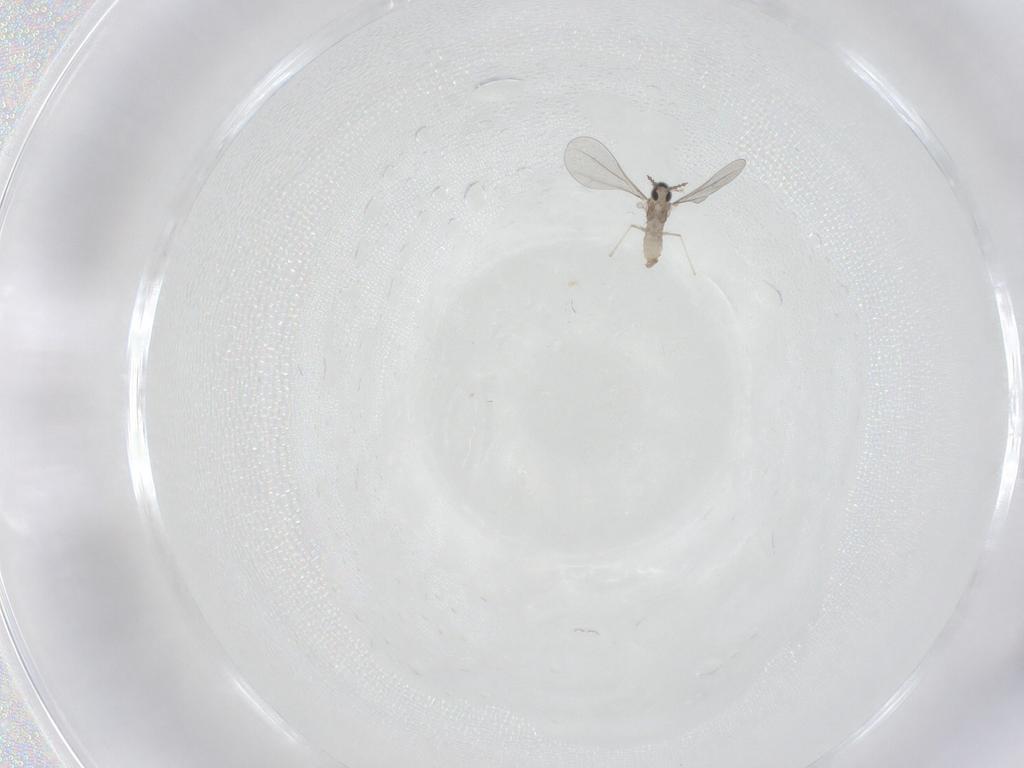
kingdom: Animalia
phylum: Arthropoda
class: Insecta
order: Diptera
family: Cecidomyiidae
